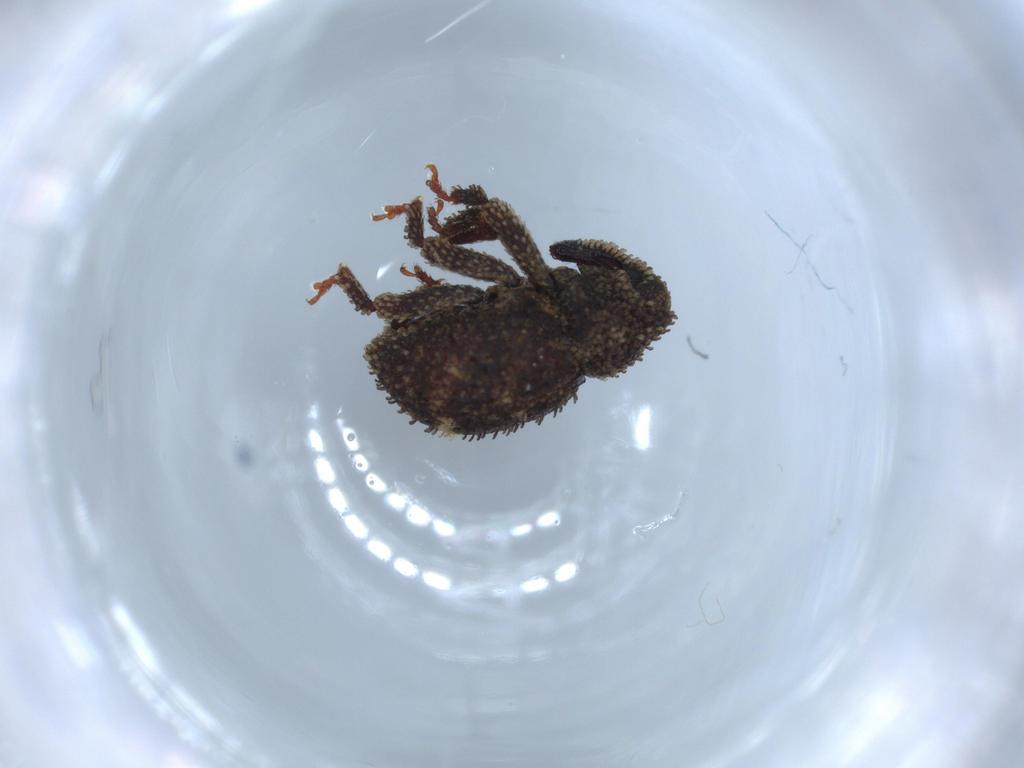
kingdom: Animalia
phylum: Arthropoda
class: Insecta
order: Coleoptera
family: Curculionidae
